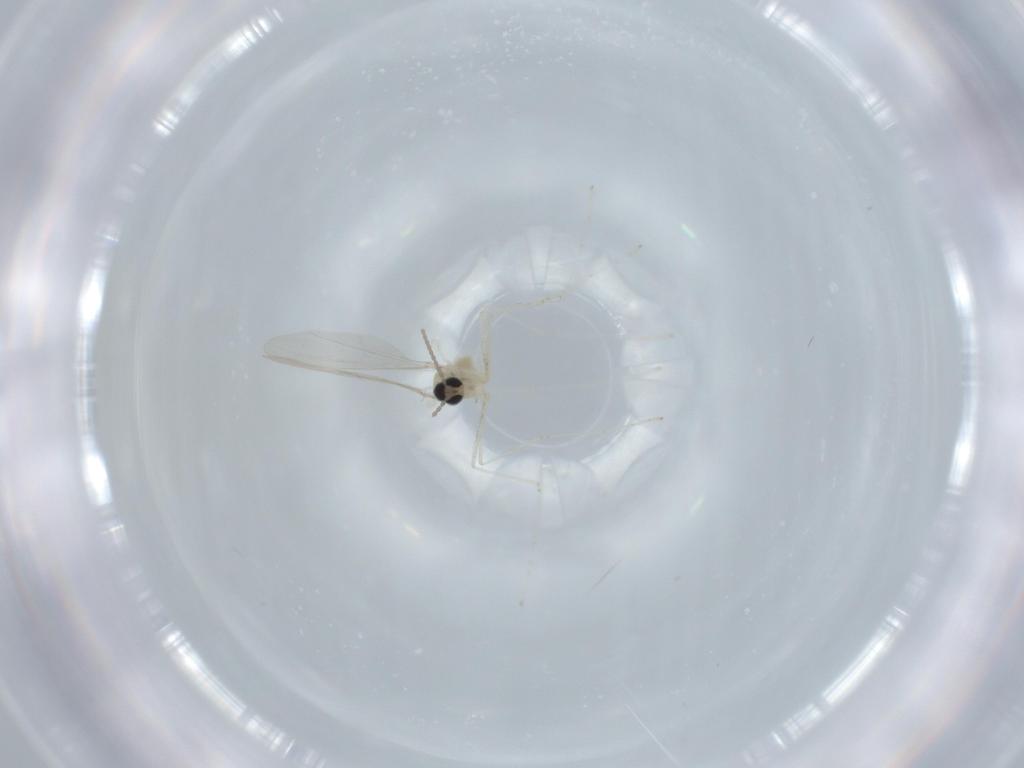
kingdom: Animalia
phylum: Arthropoda
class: Insecta
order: Diptera
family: Cecidomyiidae
